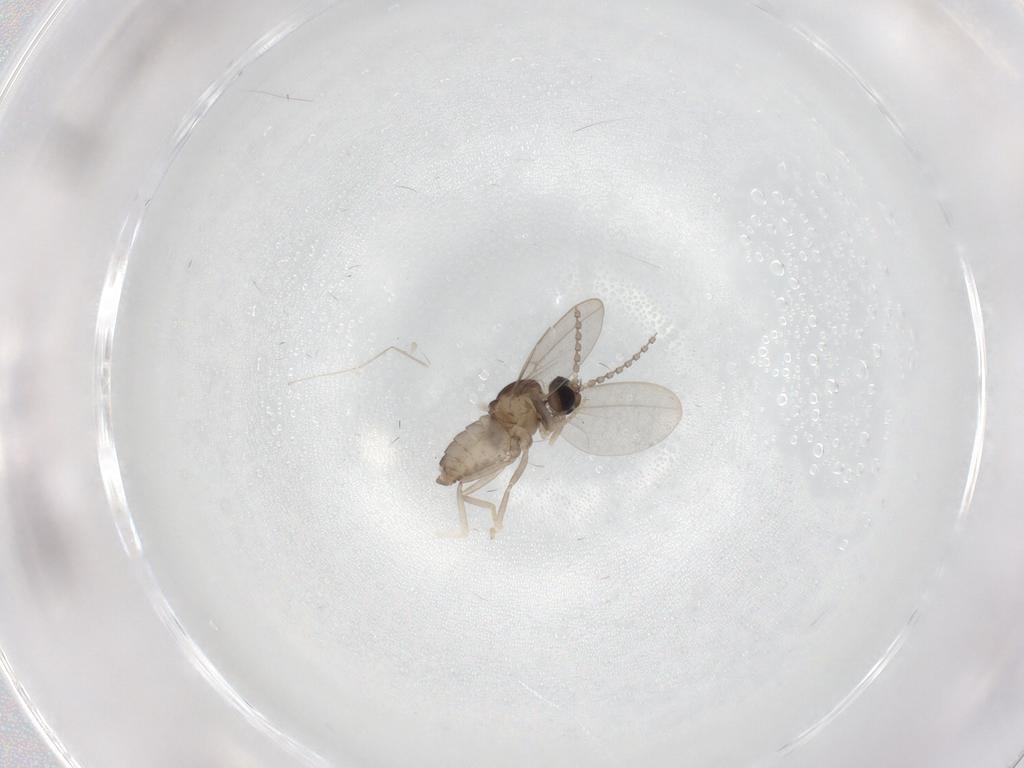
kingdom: Animalia
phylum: Arthropoda
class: Insecta
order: Diptera
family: Cecidomyiidae
